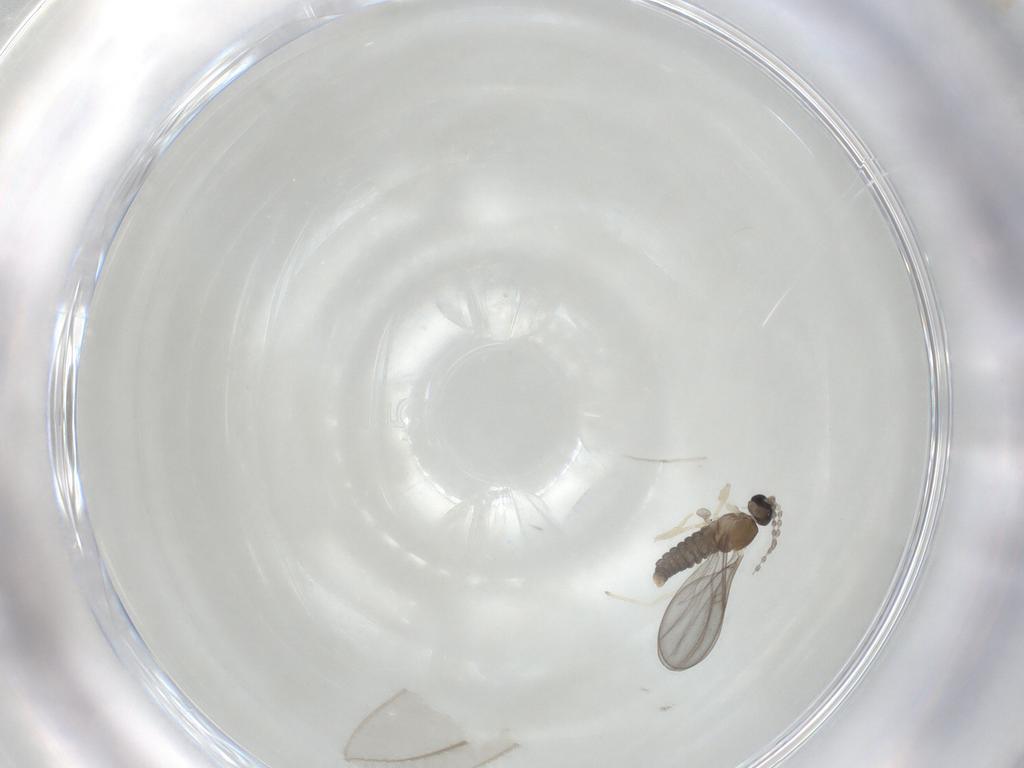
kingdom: Animalia
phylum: Arthropoda
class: Insecta
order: Diptera
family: Cecidomyiidae
